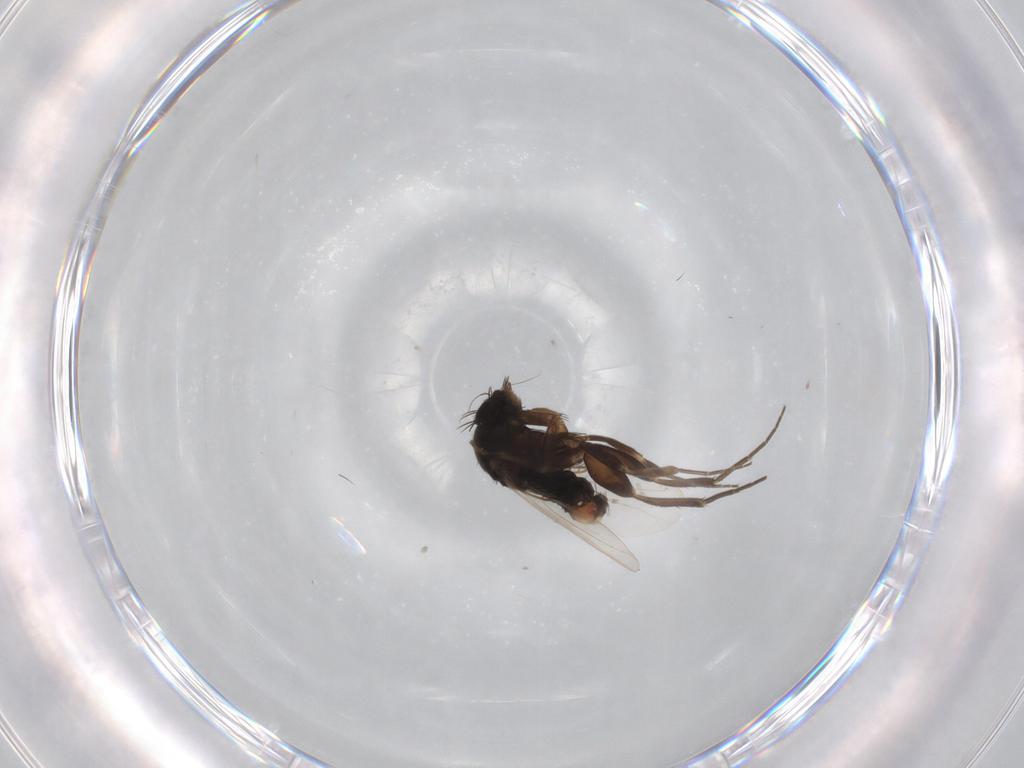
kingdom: Animalia
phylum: Arthropoda
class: Insecta
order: Diptera
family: Phoridae
